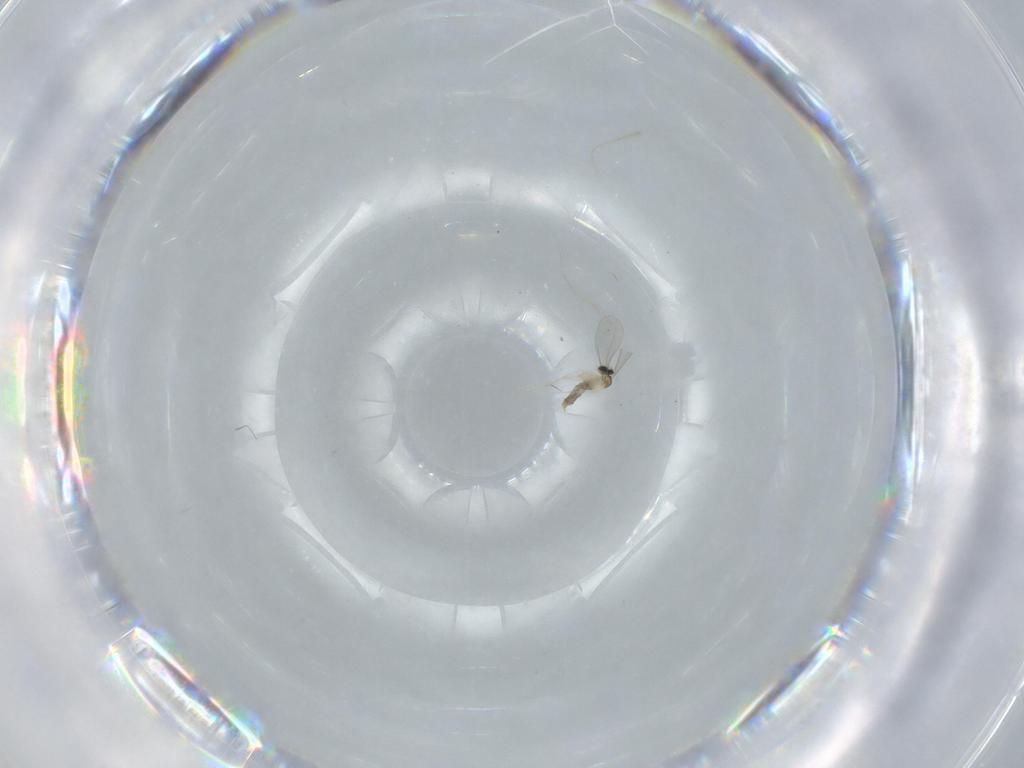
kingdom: Animalia
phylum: Arthropoda
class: Insecta
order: Diptera
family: Sciaridae
